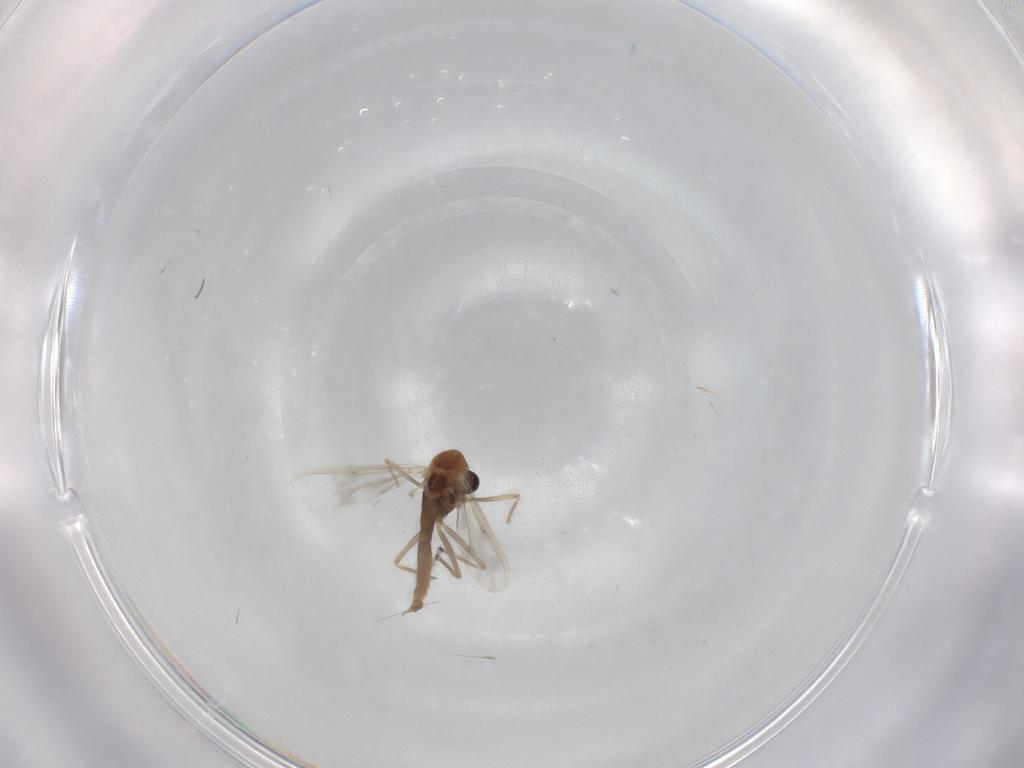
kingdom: Animalia
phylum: Arthropoda
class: Insecta
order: Diptera
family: Chironomidae
